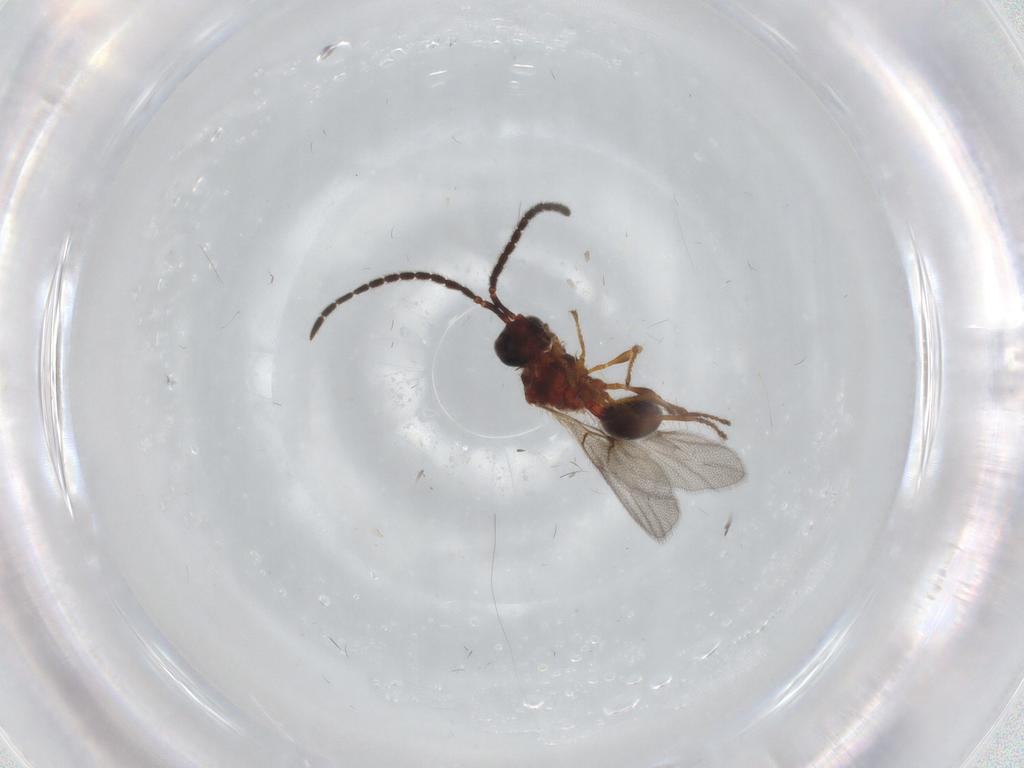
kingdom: Animalia
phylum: Arthropoda
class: Insecta
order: Hymenoptera
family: Diapriidae
